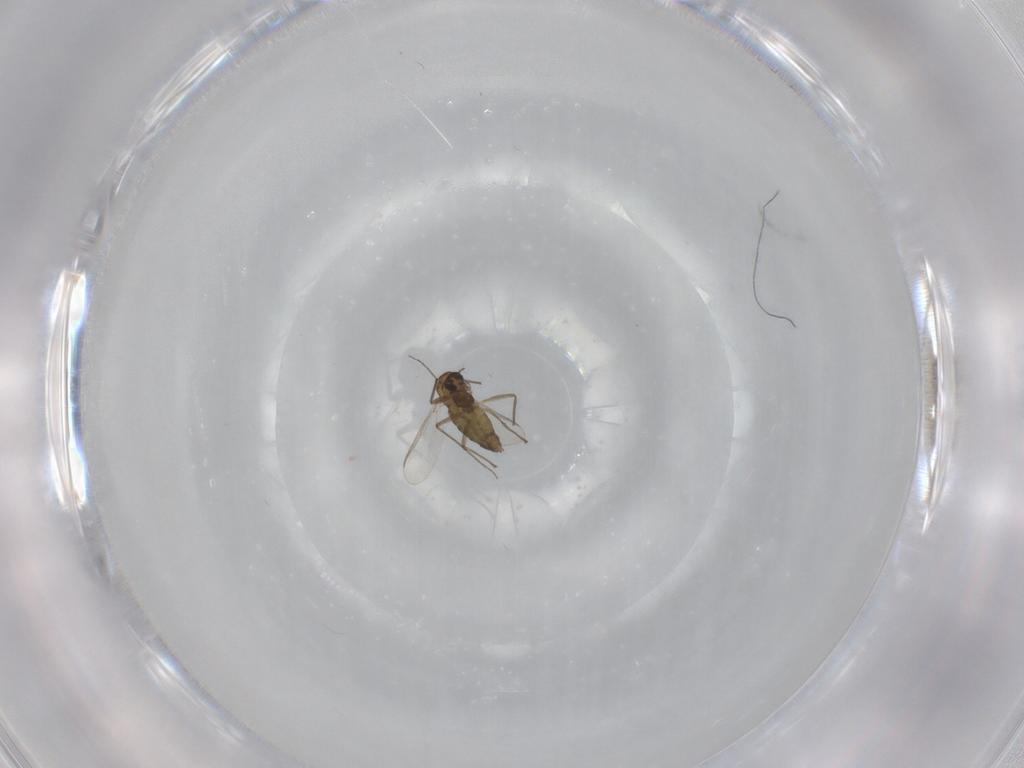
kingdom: Animalia
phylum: Arthropoda
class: Insecta
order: Diptera
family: Chironomidae
